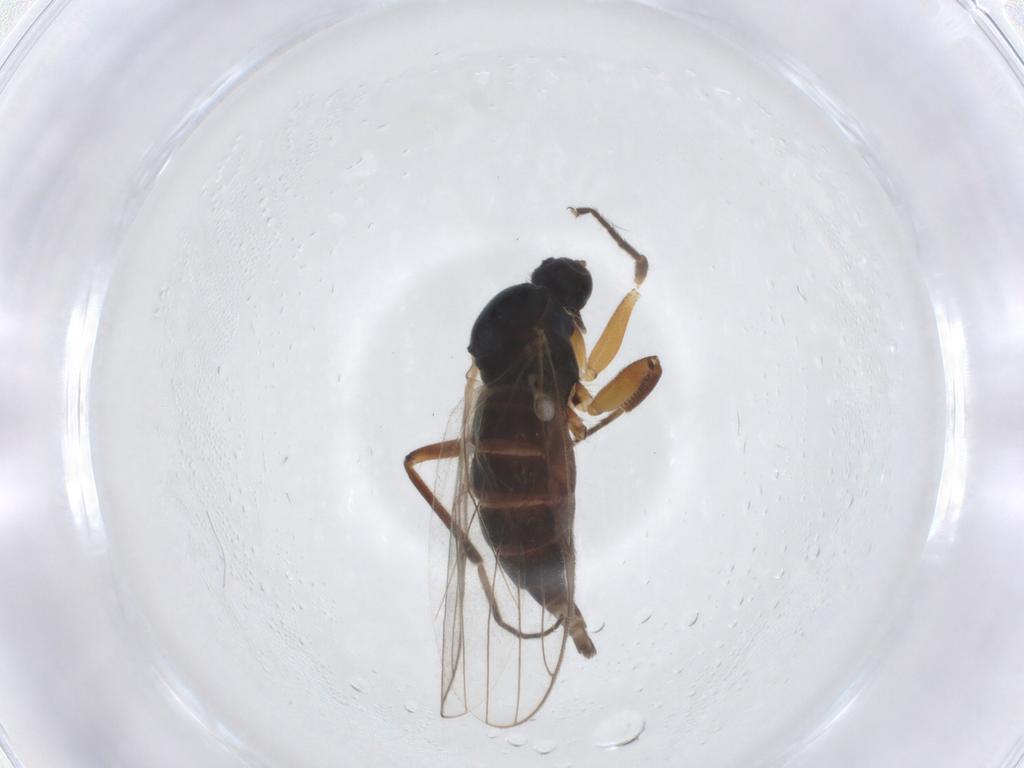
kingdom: Animalia
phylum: Arthropoda
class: Insecta
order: Diptera
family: Hybotidae
